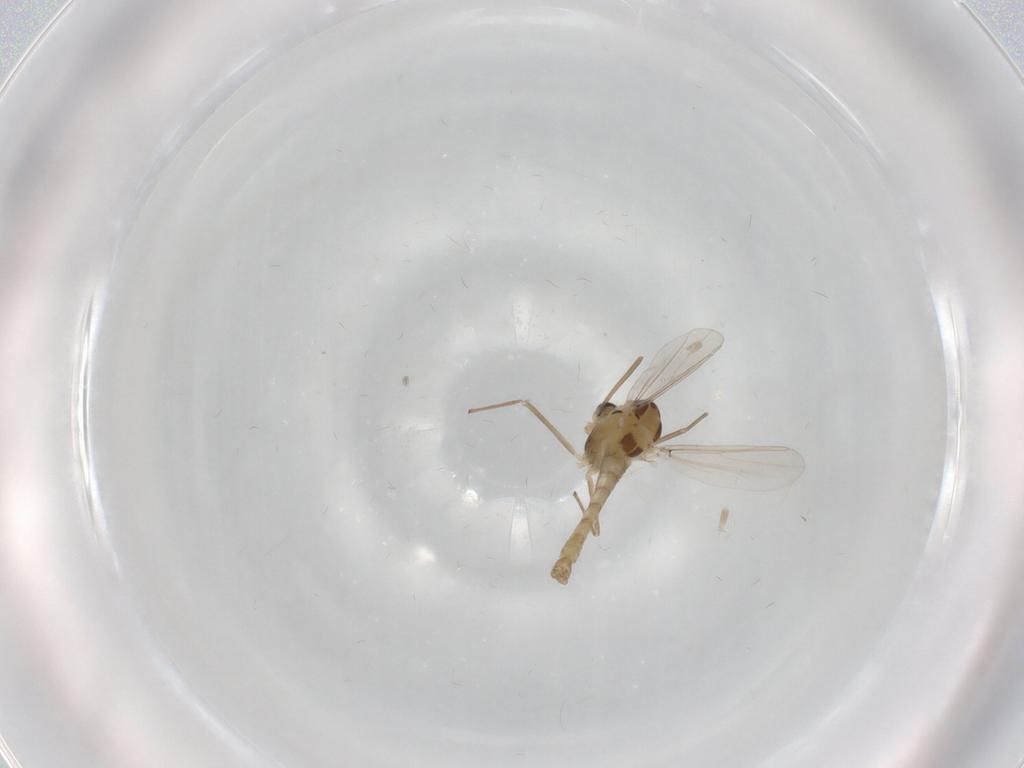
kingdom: Animalia
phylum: Arthropoda
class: Insecta
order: Diptera
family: Chironomidae
